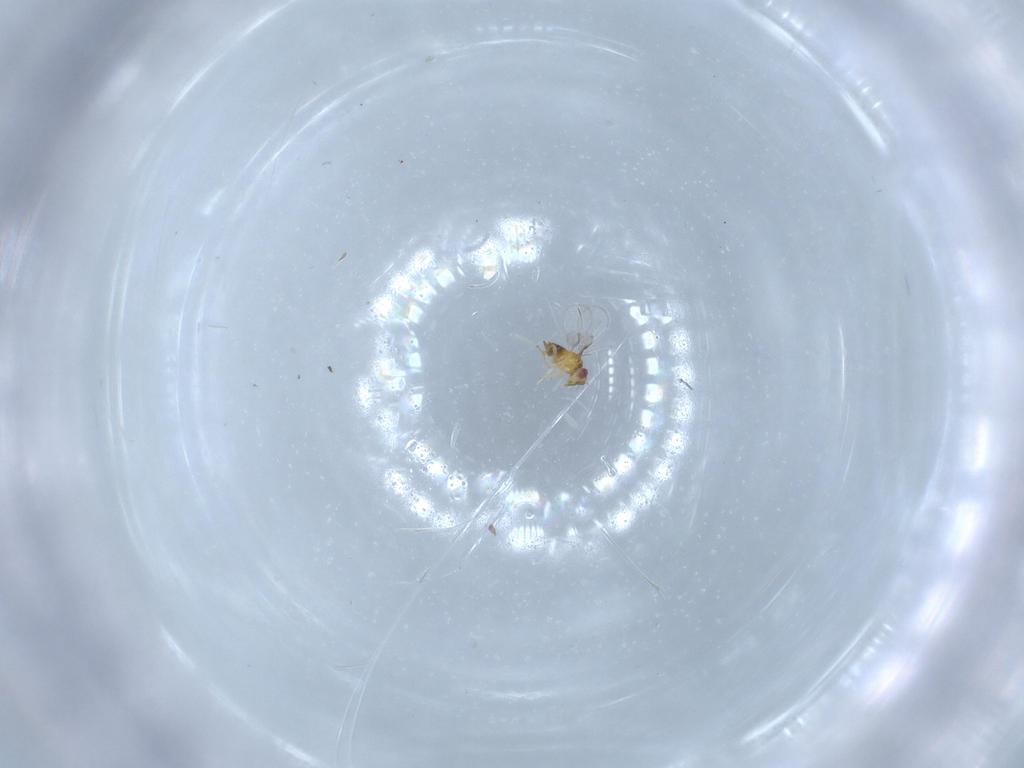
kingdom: Animalia
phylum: Arthropoda
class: Insecta
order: Hymenoptera
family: Trichogrammatidae
